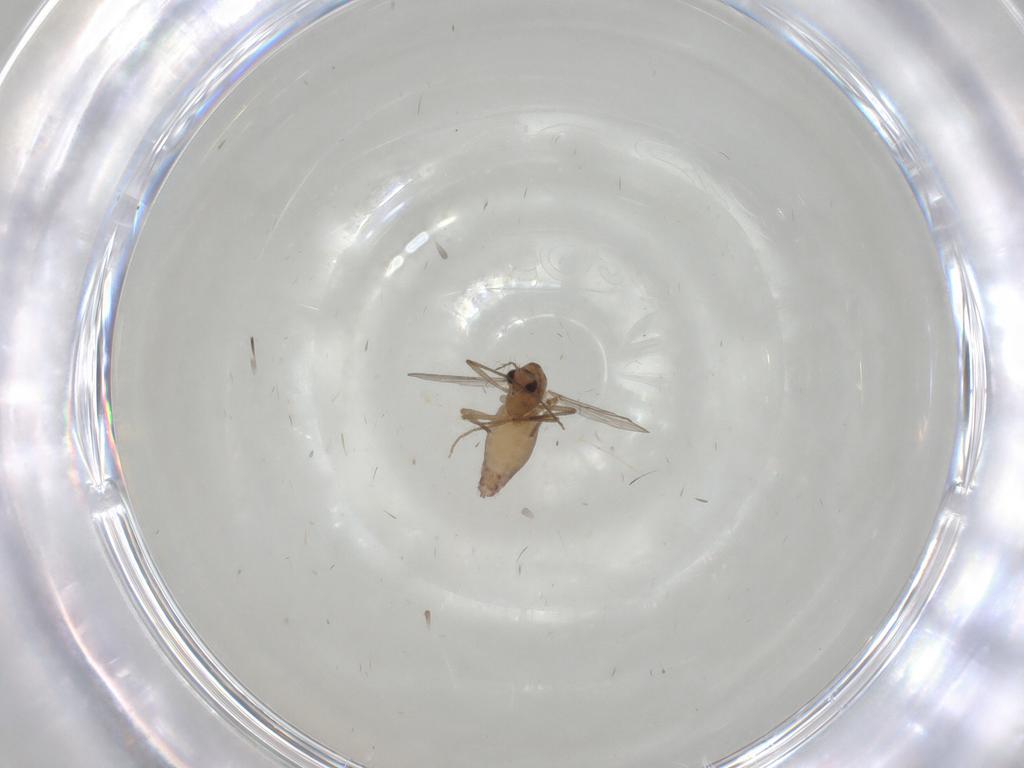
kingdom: Animalia
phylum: Arthropoda
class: Insecta
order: Diptera
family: Chironomidae
